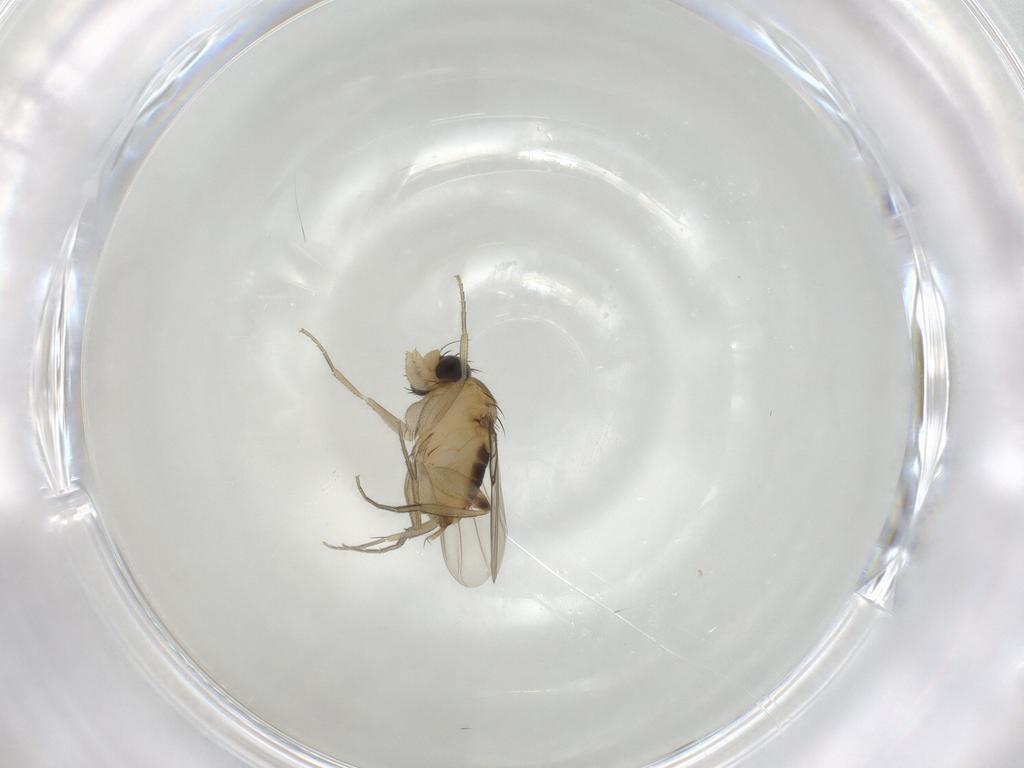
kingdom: Animalia
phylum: Arthropoda
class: Insecta
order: Diptera
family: Phoridae
